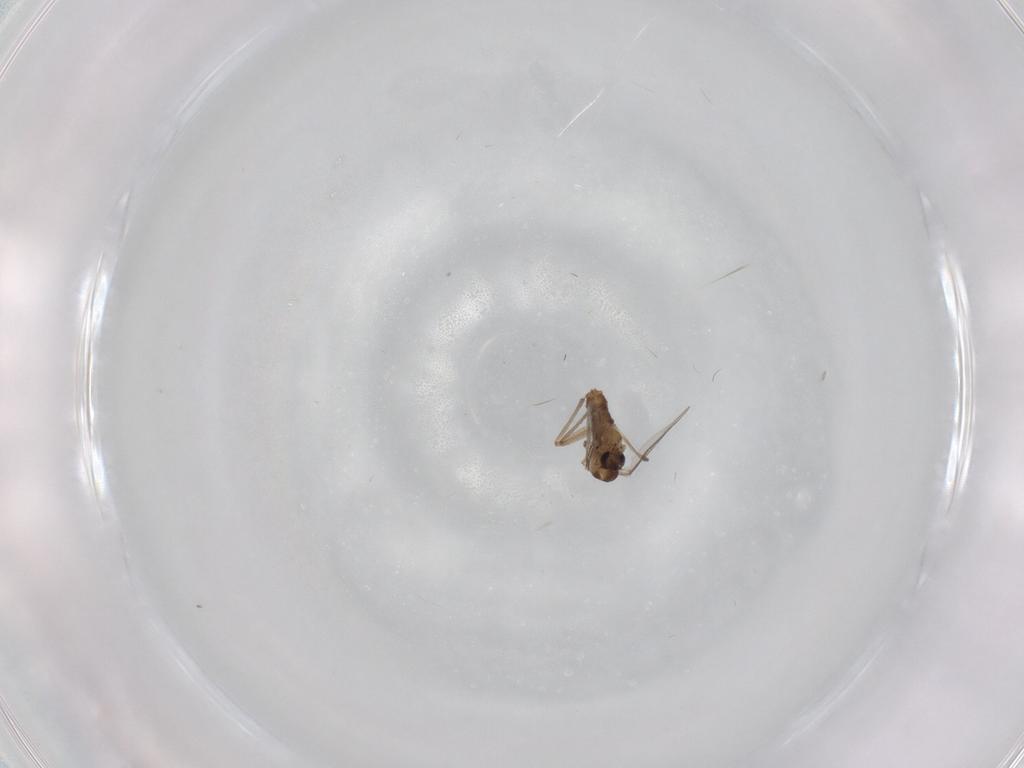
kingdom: Animalia
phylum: Arthropoda
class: Insecta
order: Diptera
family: Chironomidae
